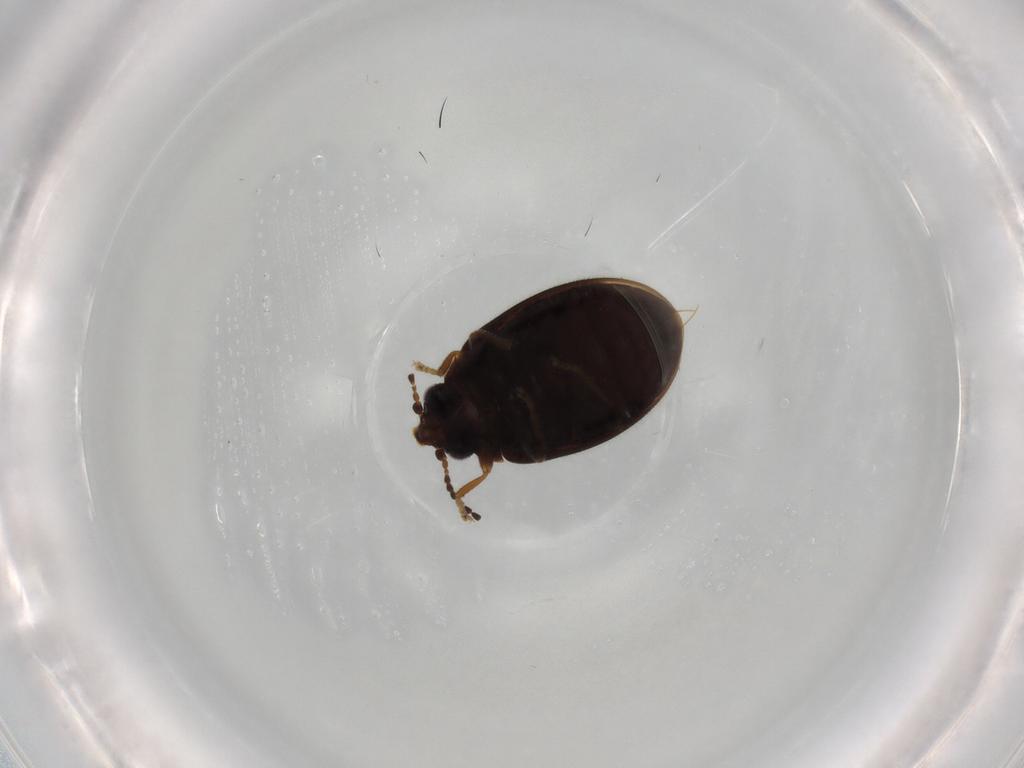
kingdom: Animalia
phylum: Arthropoda
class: Insecta
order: Coleoptera
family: Scirtidae
